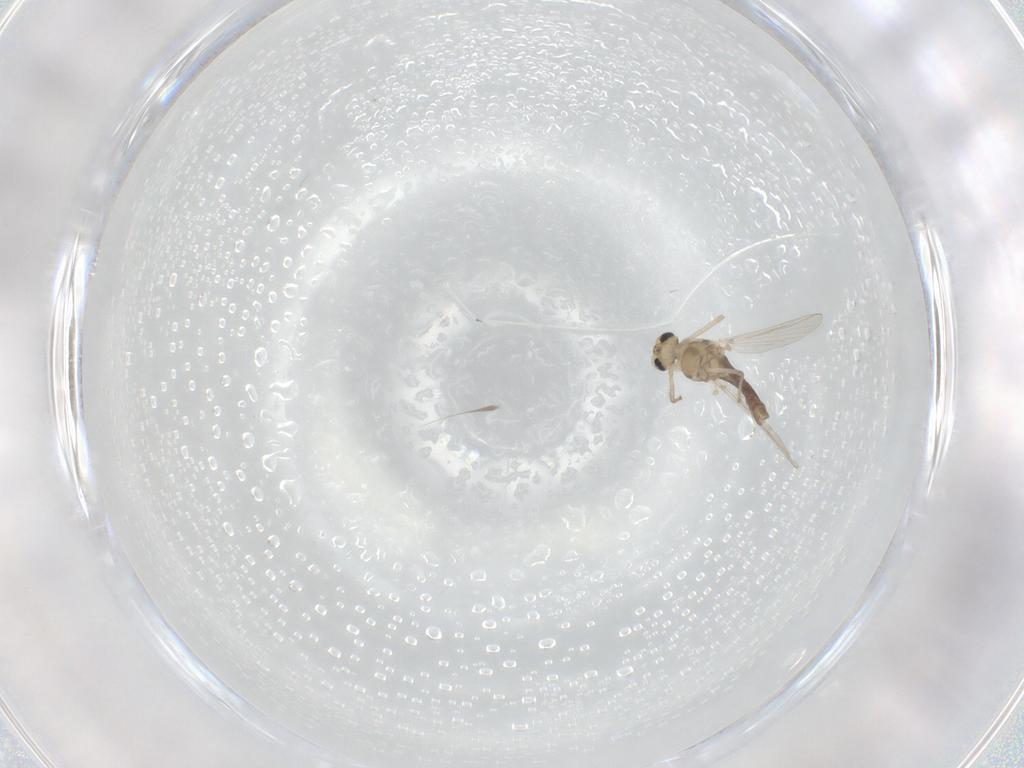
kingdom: Animalia
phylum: Arthropoda
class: Insecta
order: Diptera
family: Chironomidae
